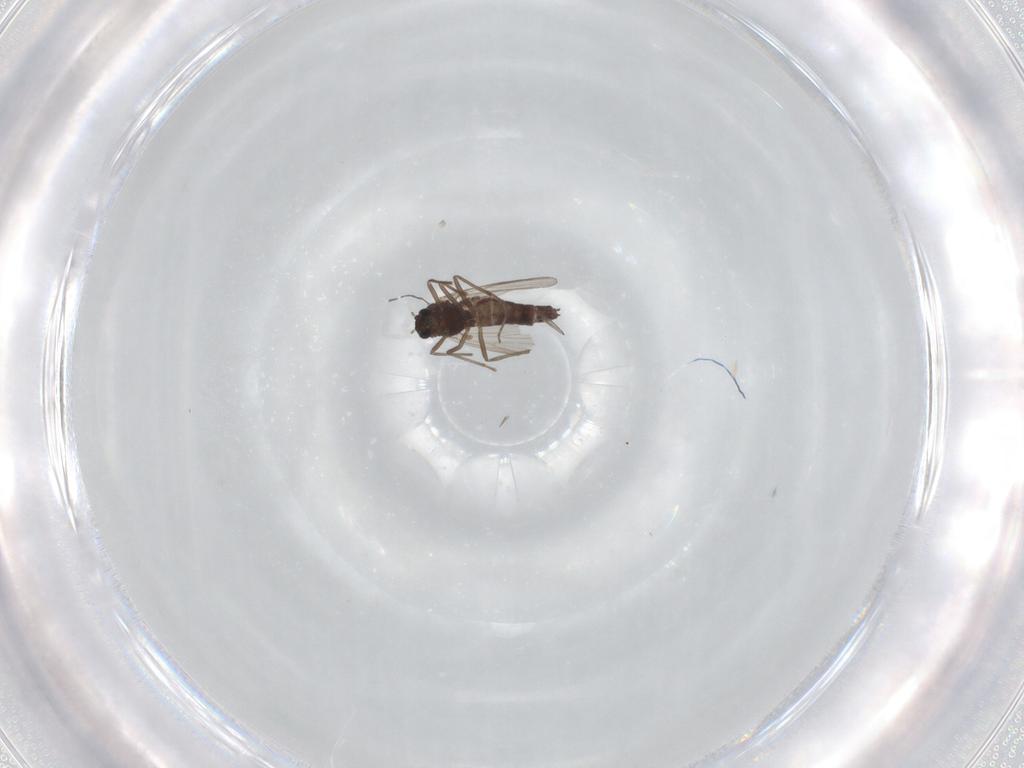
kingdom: Animalia
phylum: Arthropoda
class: Insecta
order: Diptera
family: Chironomidae
